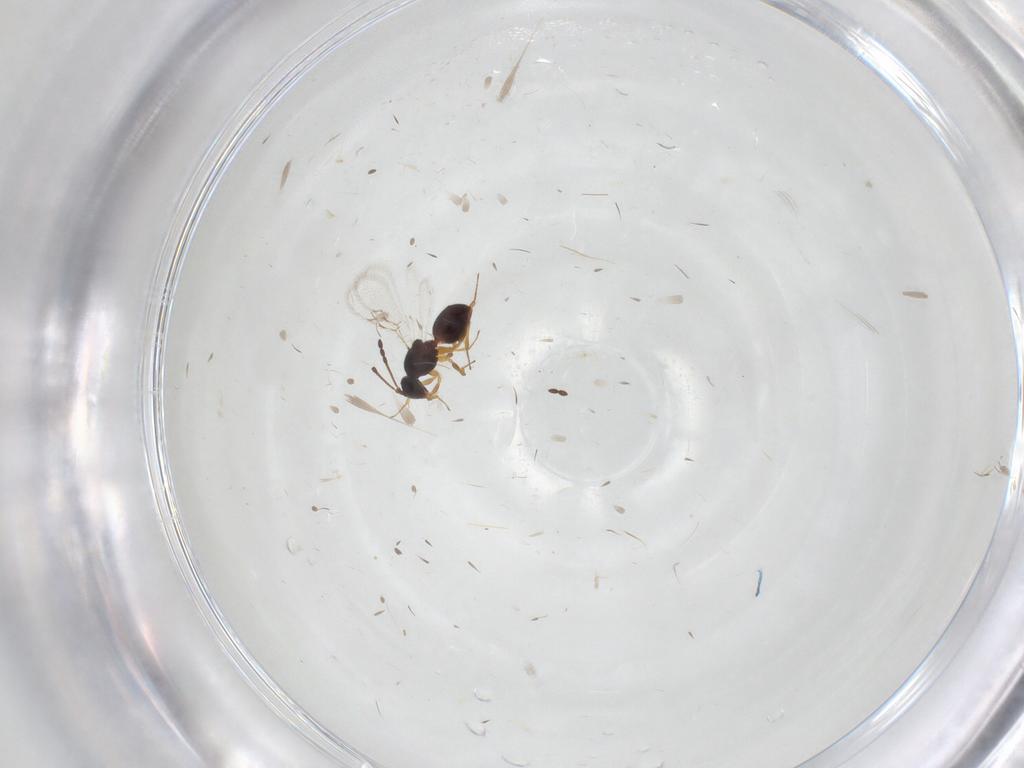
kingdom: Animalia
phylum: Arthropoda
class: Insecta
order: Hymenoptera
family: Figitidae
